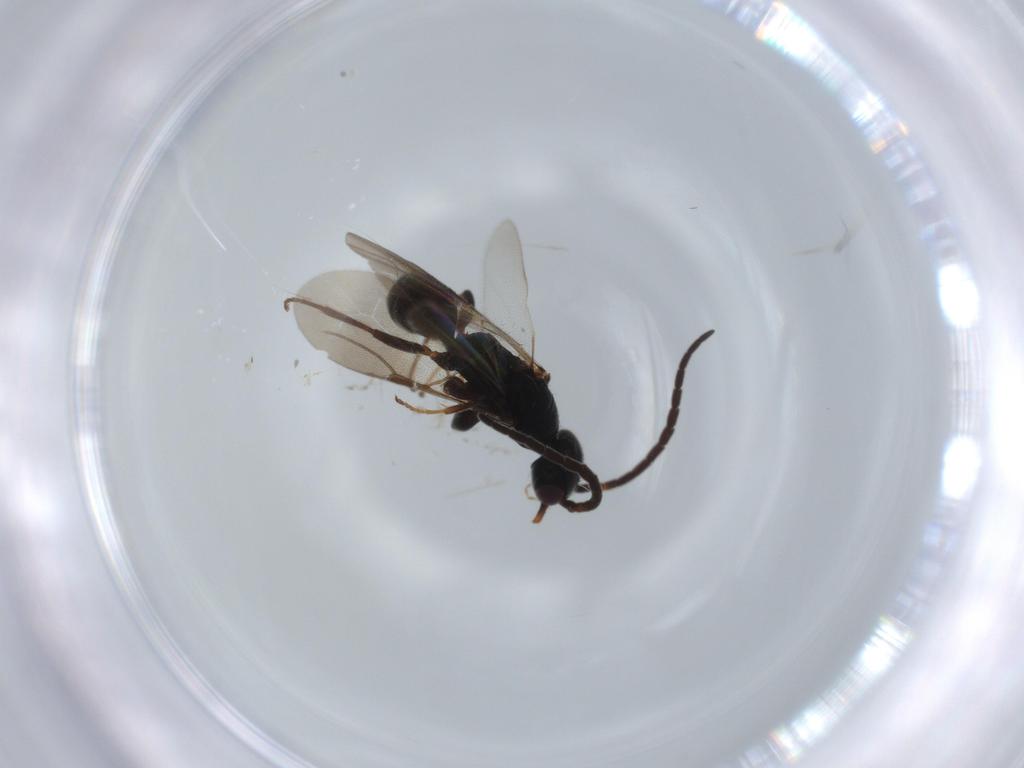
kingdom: Animalia
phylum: Arthropoda
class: Insecta
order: Hymenoptera
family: Bethylidae
